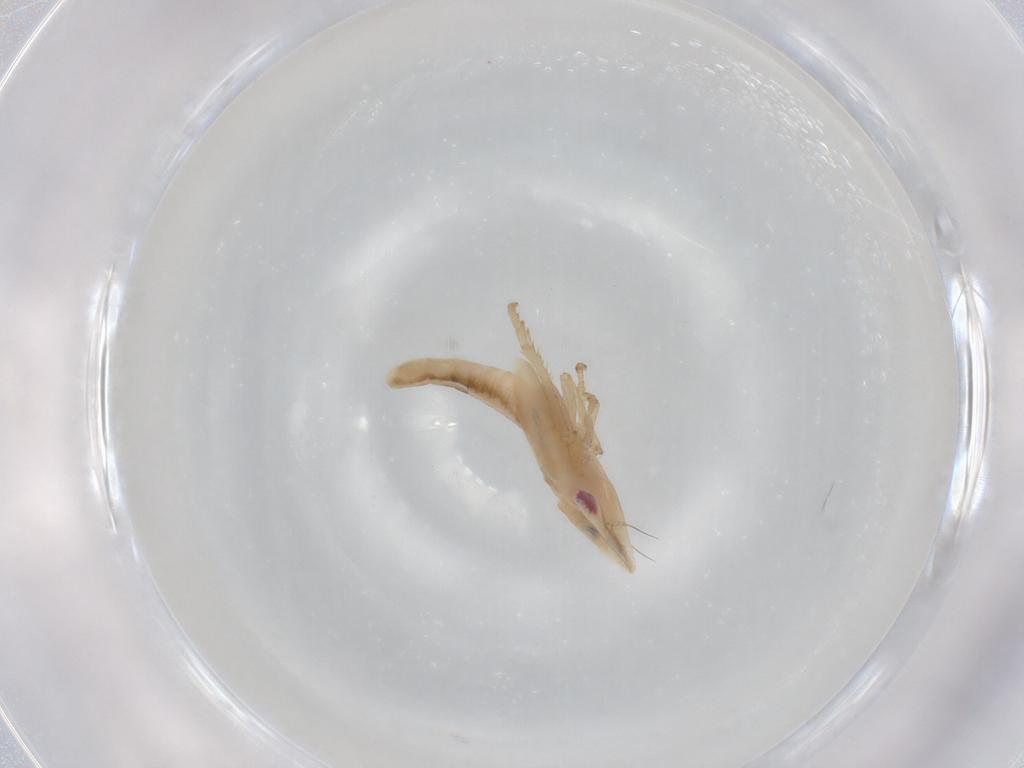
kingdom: Animalia
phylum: Arthropoda
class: Insecta
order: Hemiptera
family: Cicadellidae
